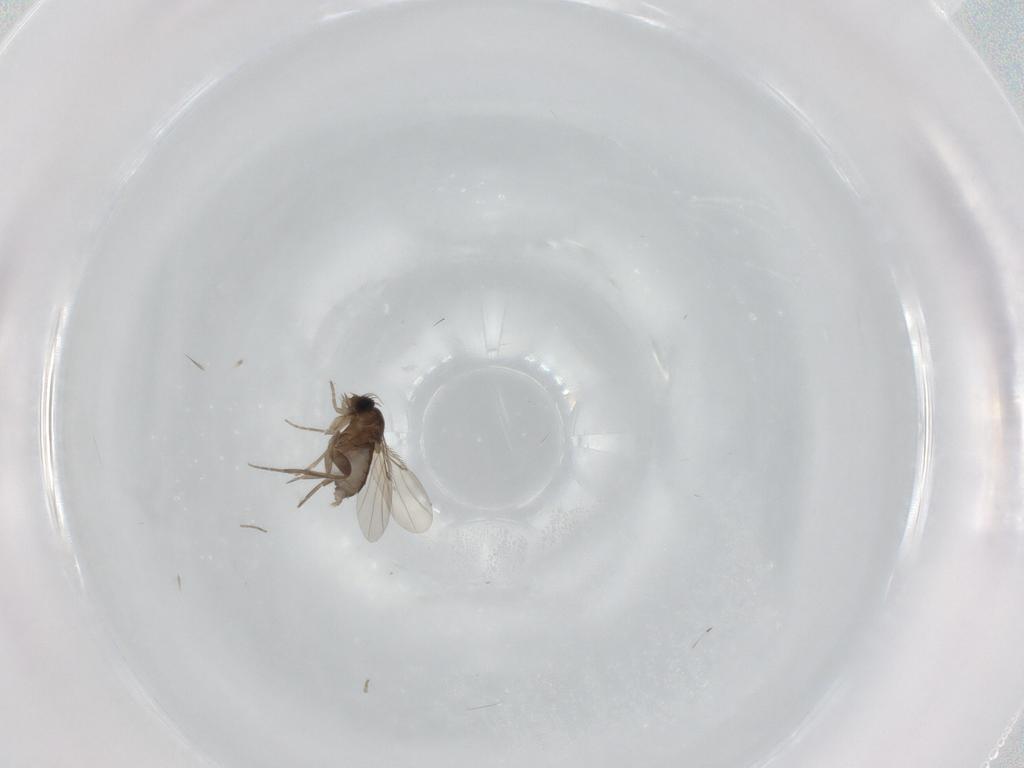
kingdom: Animalia
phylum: Arthropoda
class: Insecta
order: Diptera
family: Phoridae
